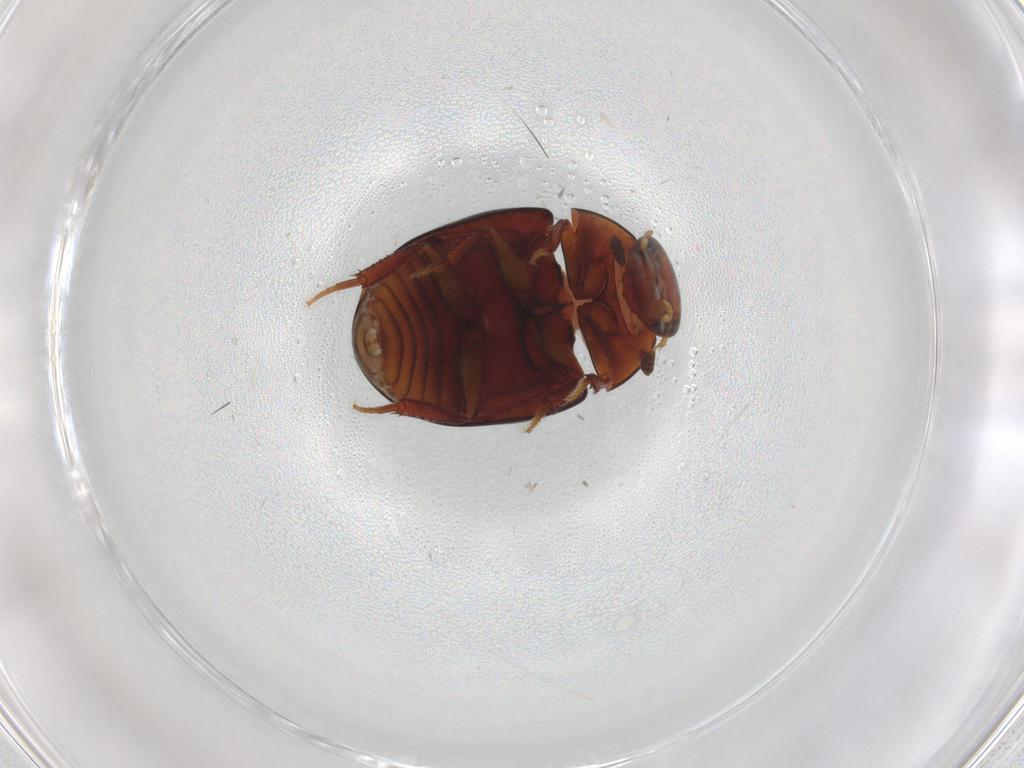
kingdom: Animalia
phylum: Arthropoda
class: Insecta
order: Coleoptera
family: Hydrophilidae
